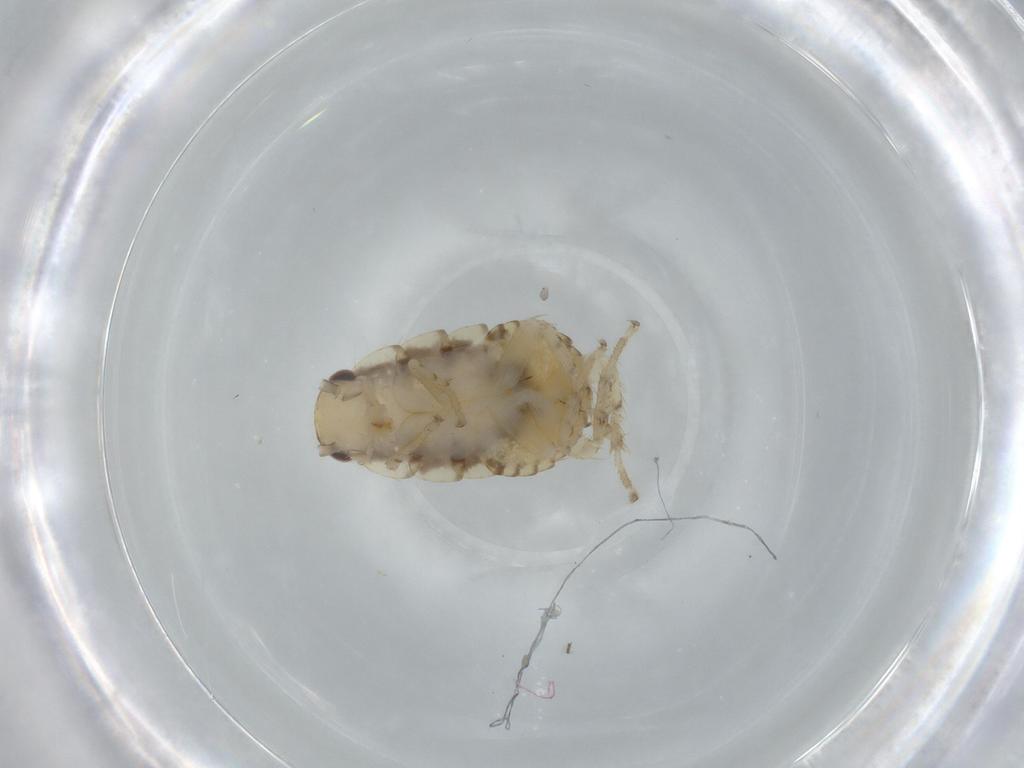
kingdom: Animalia
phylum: Arthropoda
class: Insecta
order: Blattodea
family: Ectobiidae
